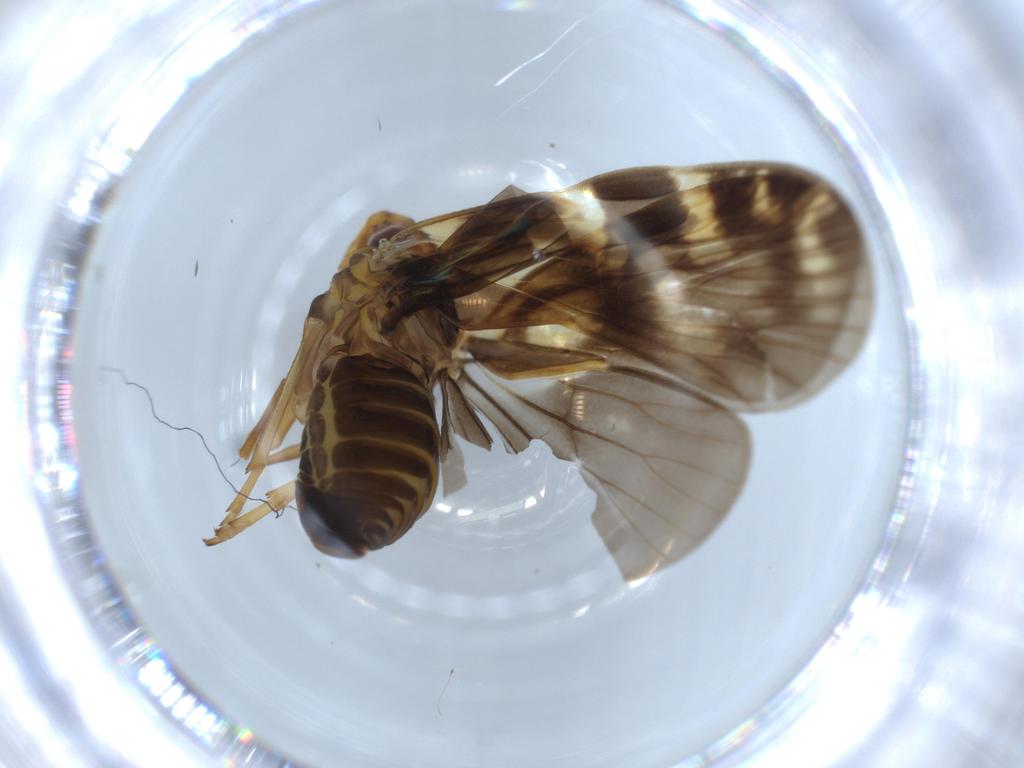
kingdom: Animalia
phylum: Arthropoda
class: Insecta
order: Hemiptera
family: Cixiidae
